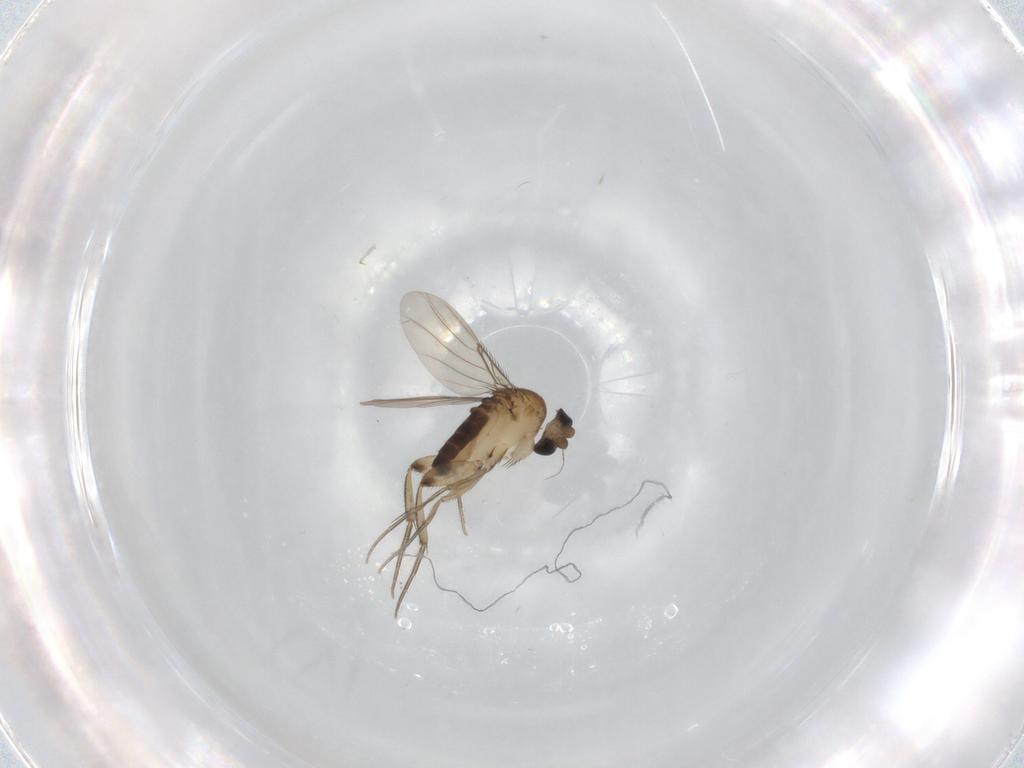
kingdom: Animalia
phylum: Arthropoda
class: Insecta
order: Diptera
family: Phoridae
